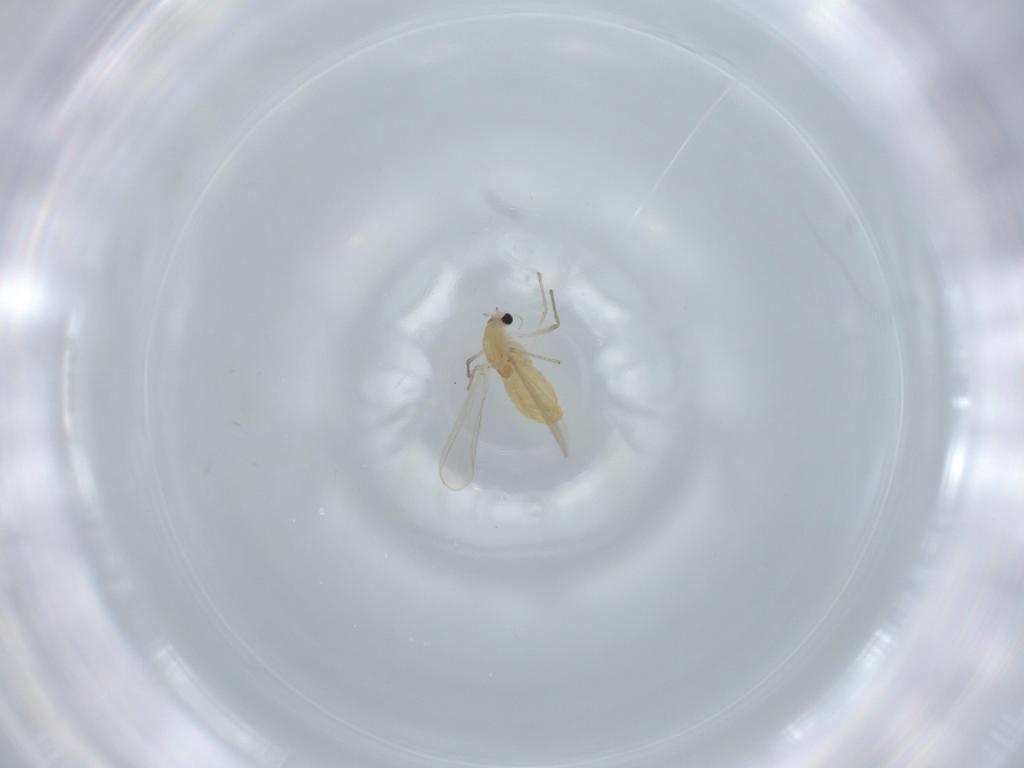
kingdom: Animalia
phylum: Arthropoda
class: Insecta
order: Diptera
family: Chironomidae
